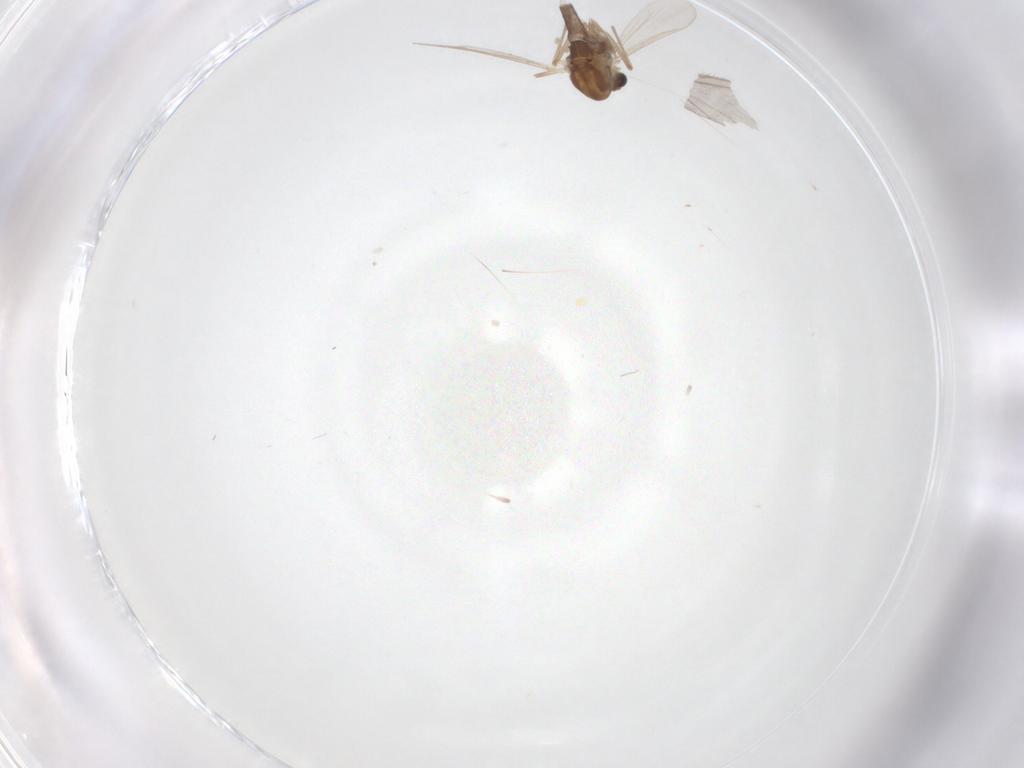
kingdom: Animalia
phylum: Arthropoda
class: Insecta
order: Diptera
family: Sciaridae
